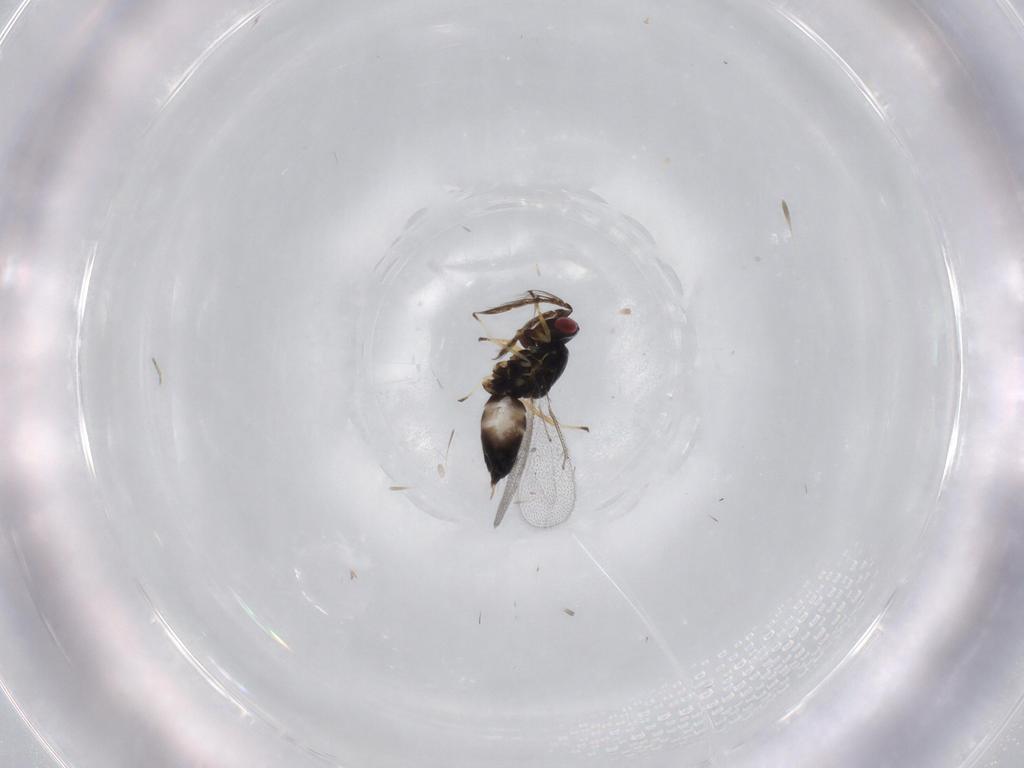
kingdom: Animalia
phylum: Arthropoda
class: Insecta
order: Hymenoptera
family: Eulophidae
